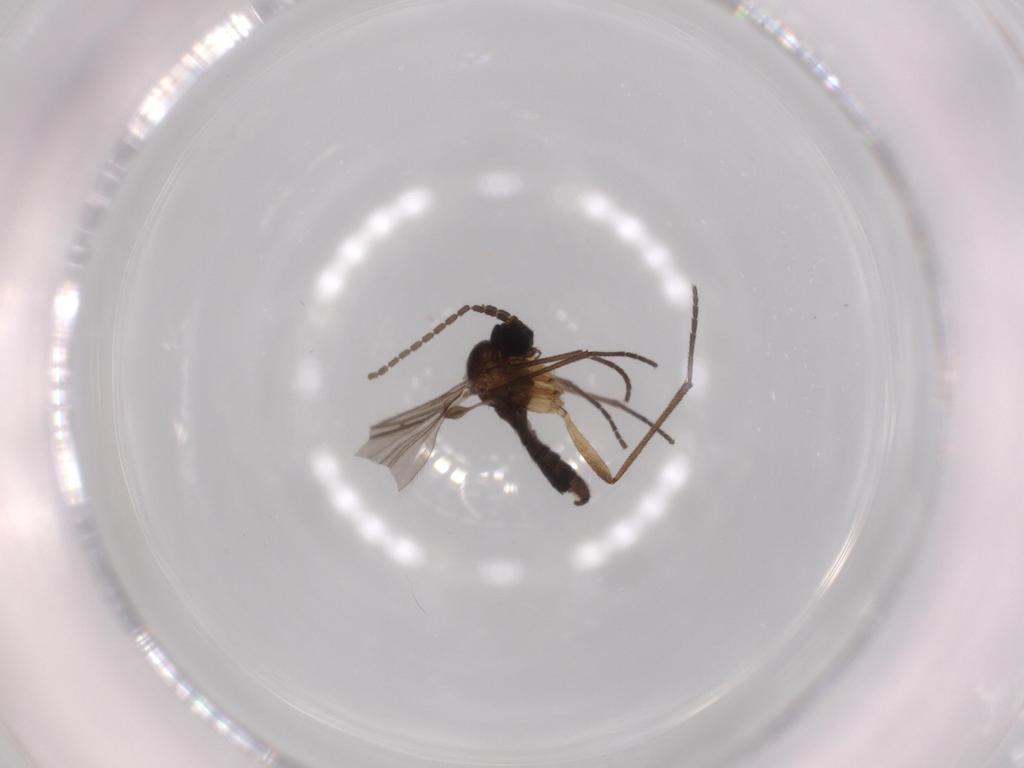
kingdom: Animalia
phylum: Arthropoda
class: Insecta
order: Diptera
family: Sciaridae
